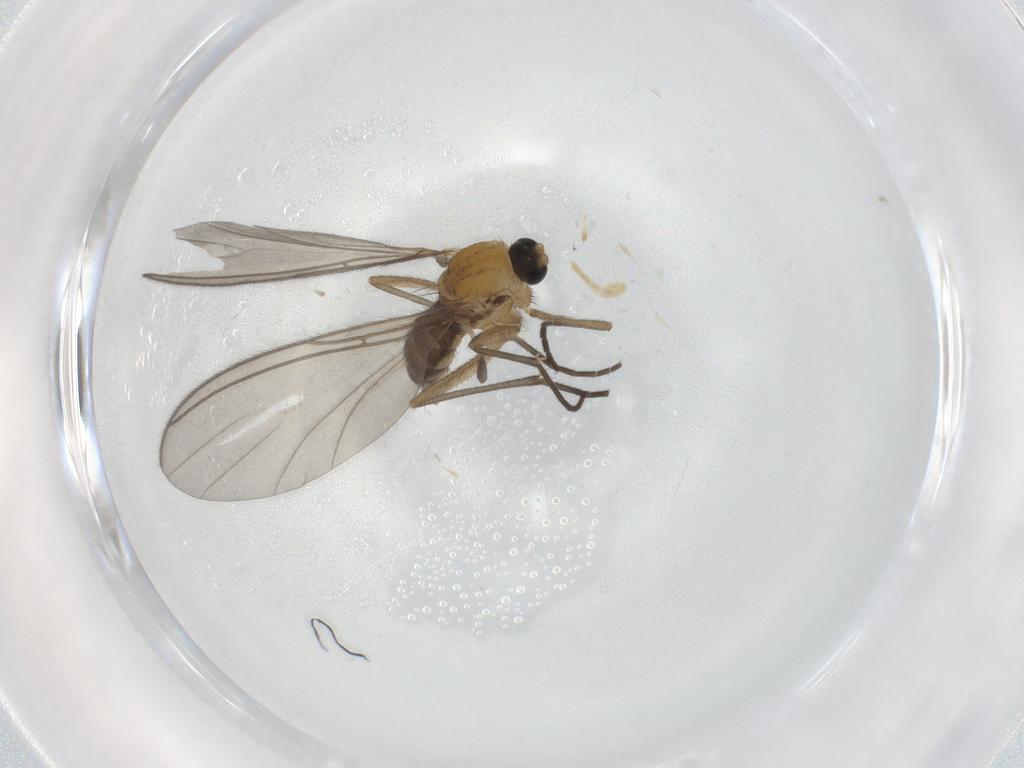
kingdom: Animalia
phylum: Arthropoda
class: Insecta
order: Diptera
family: Sciaridae
